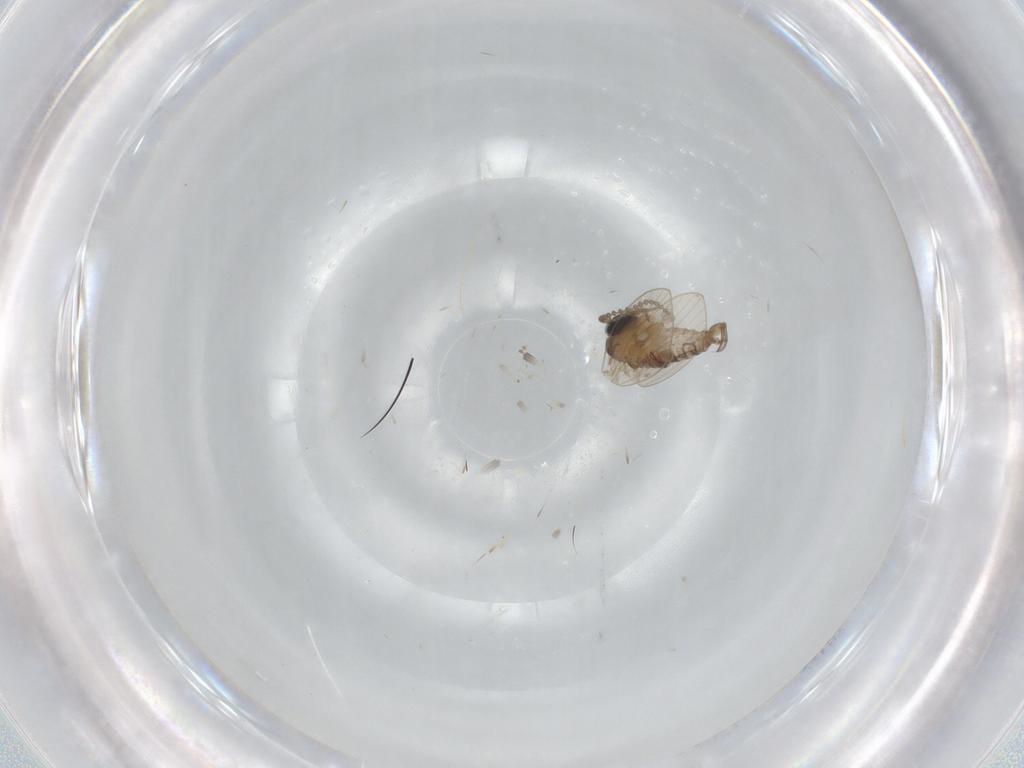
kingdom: Animalia
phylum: Arthropoda
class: Insecta
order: Diptera
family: Psychodidae
